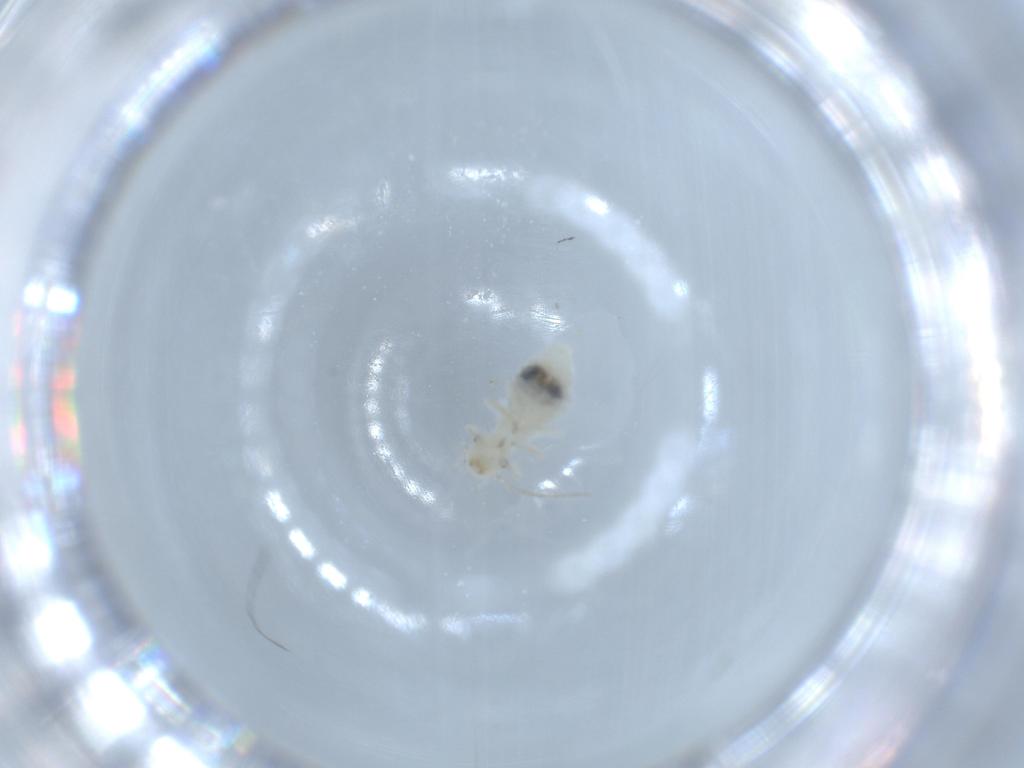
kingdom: Animalia
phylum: Arthropoda
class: Insecta
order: Psocodea
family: Caeciliusidae
